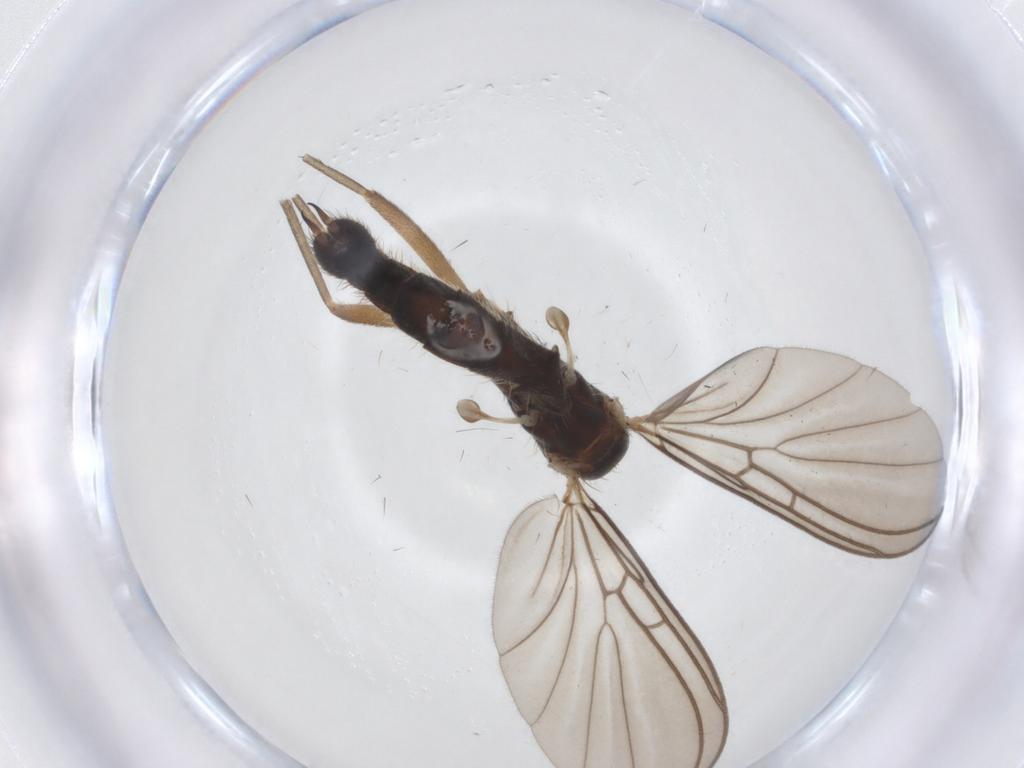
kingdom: Animalia
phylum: Arthropoda
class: Insecta
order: Diptera
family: Mycetophilidae
